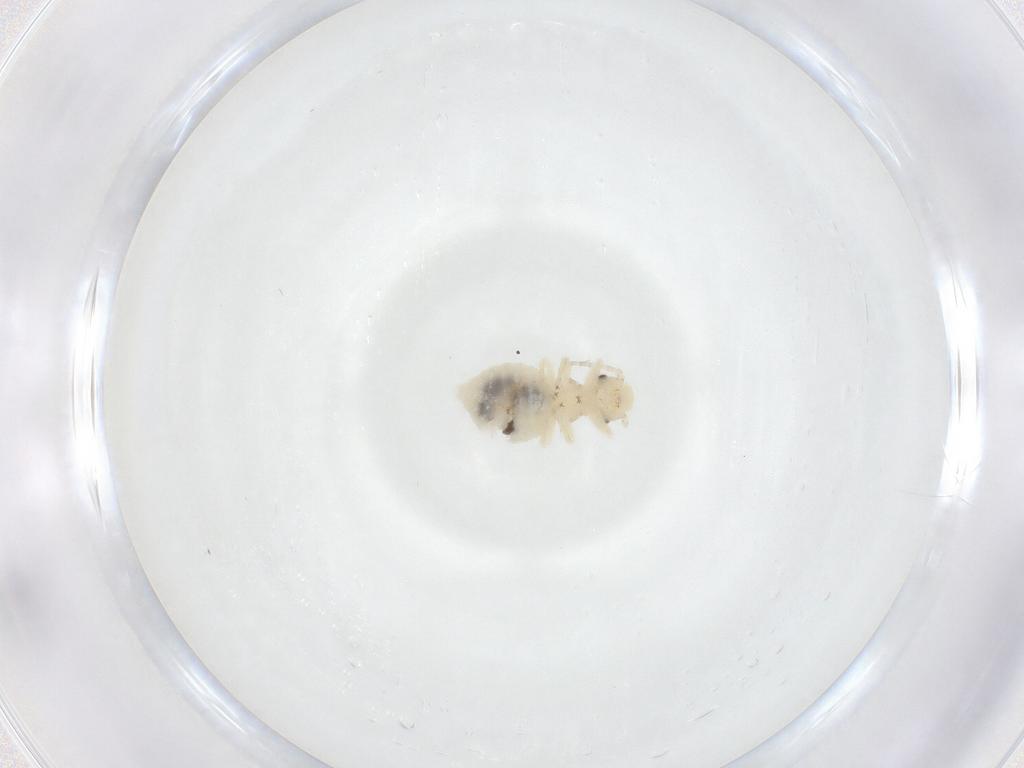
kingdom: Animalia
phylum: Arthropoda
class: Insecta
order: Psocodea
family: Amphipsocidae
